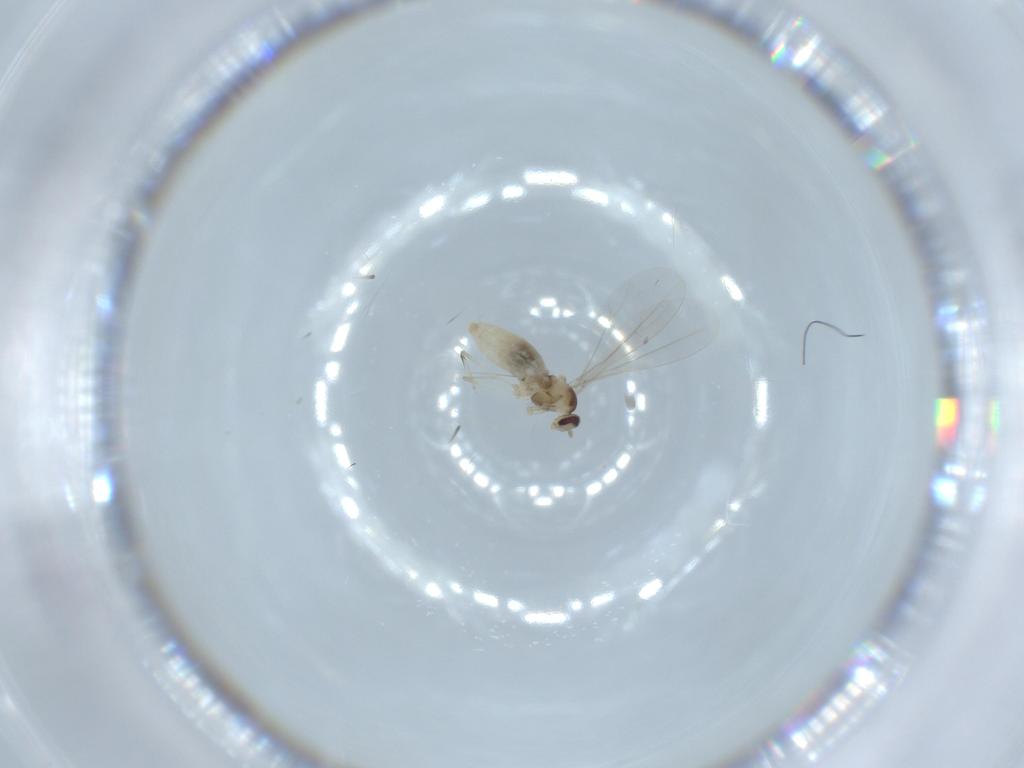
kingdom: Animalia
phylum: Arthropoda
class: Insecta
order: Diptera
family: Cecidomyiidae
